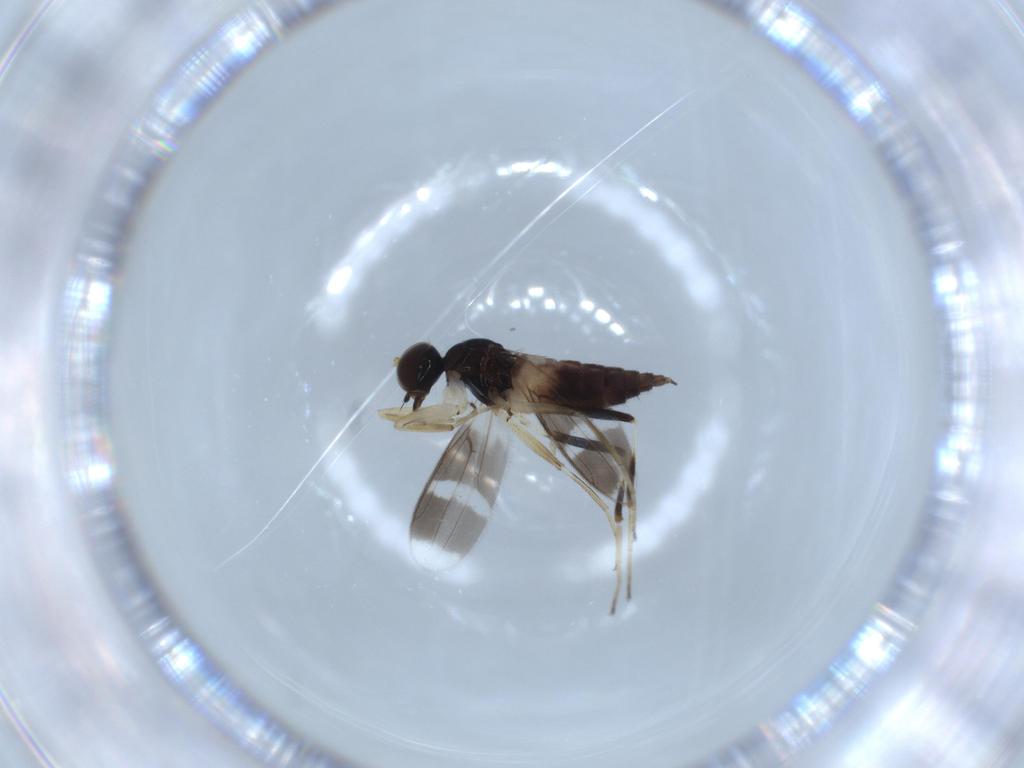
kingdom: Animalia
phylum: Arthropoda
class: Insecta
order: Diptera
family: Hybotidae
